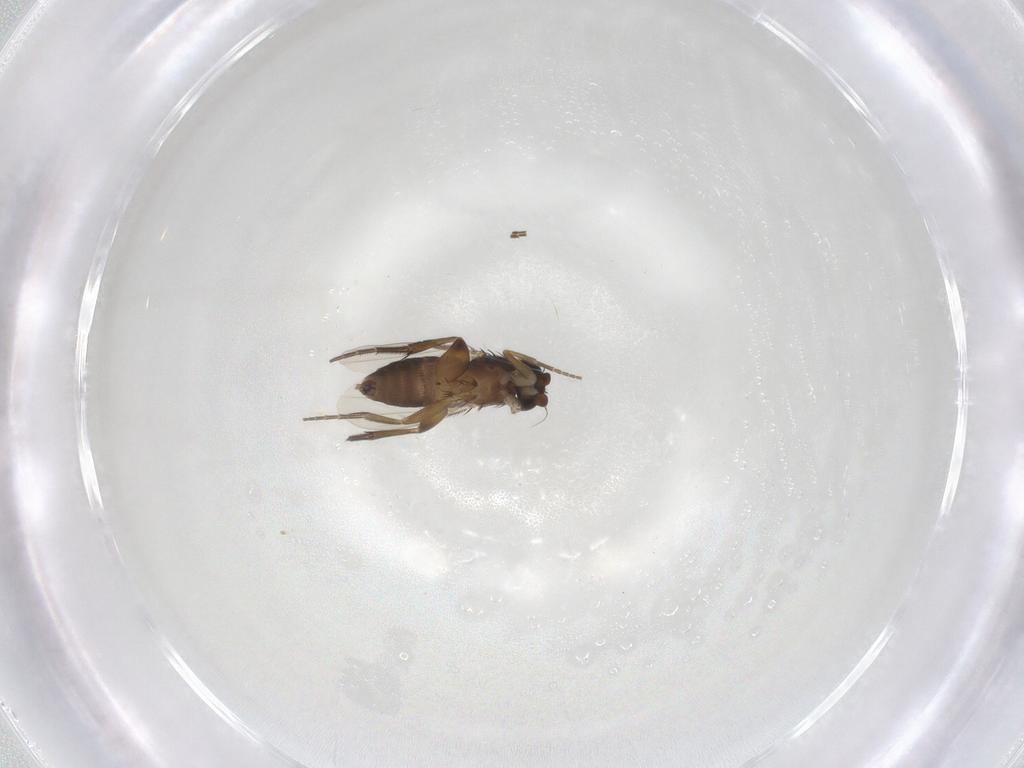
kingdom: Animalia
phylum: Arthropoda
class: Insecta
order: Diptera
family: Phoridae
